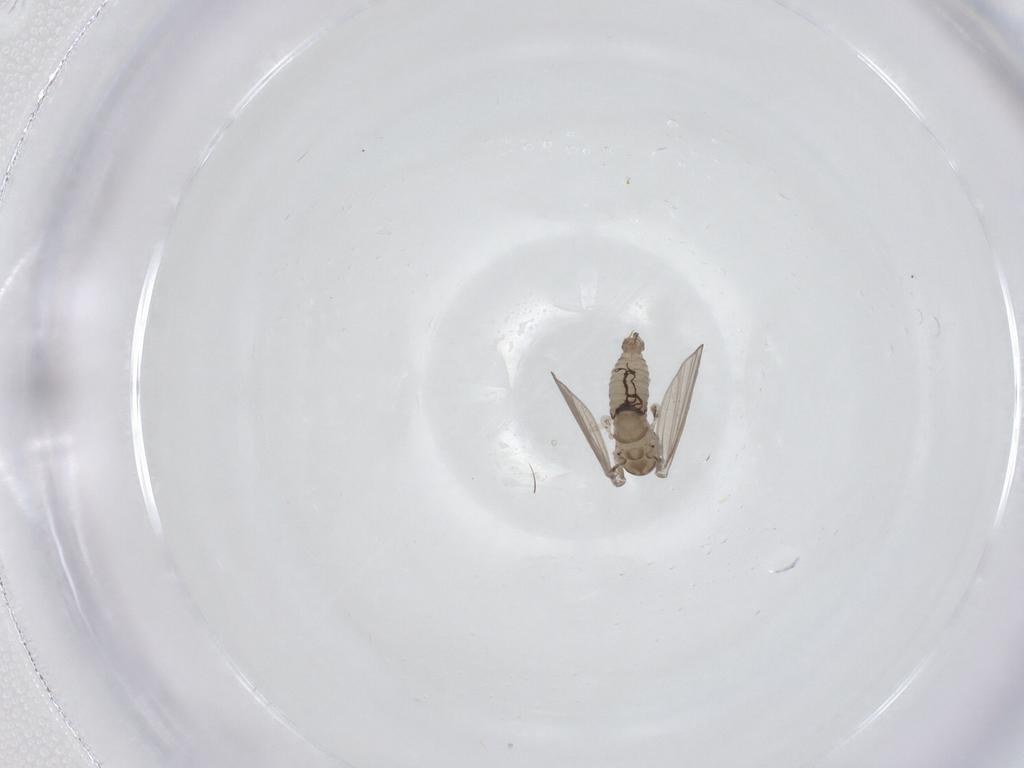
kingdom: Animalia
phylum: Arthropoda
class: Insecta
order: Diptera
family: Psychodidae
